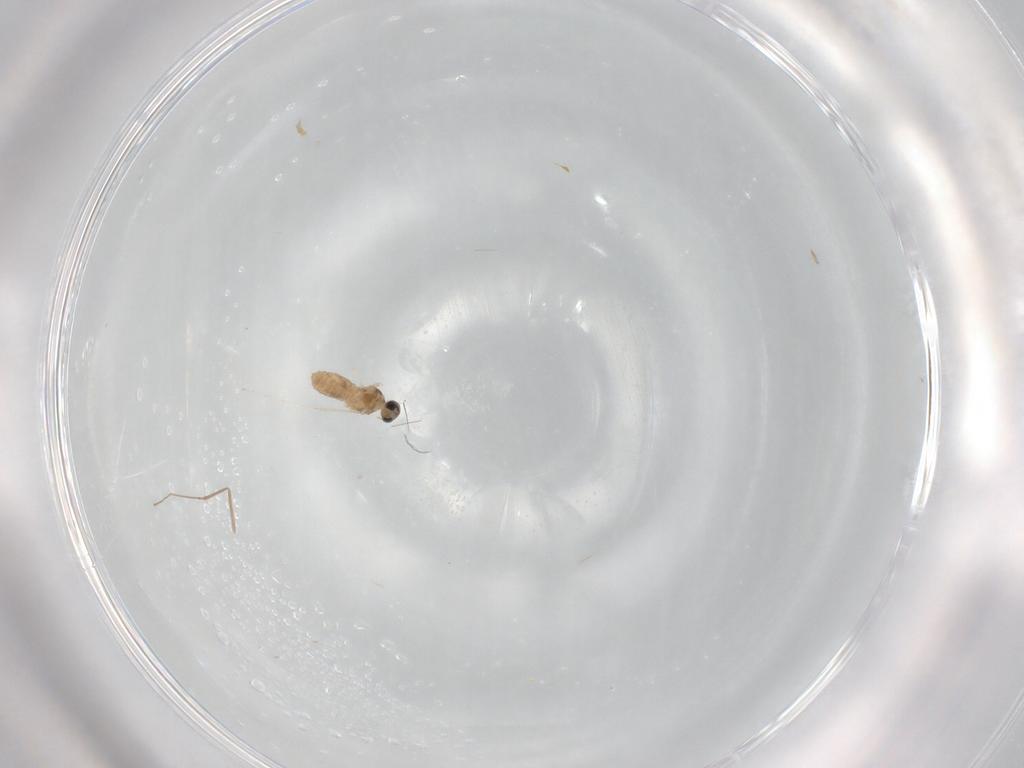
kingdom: Animalia
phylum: Arthropoda
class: Insecta
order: Diptera
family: Cecidomyiidae
